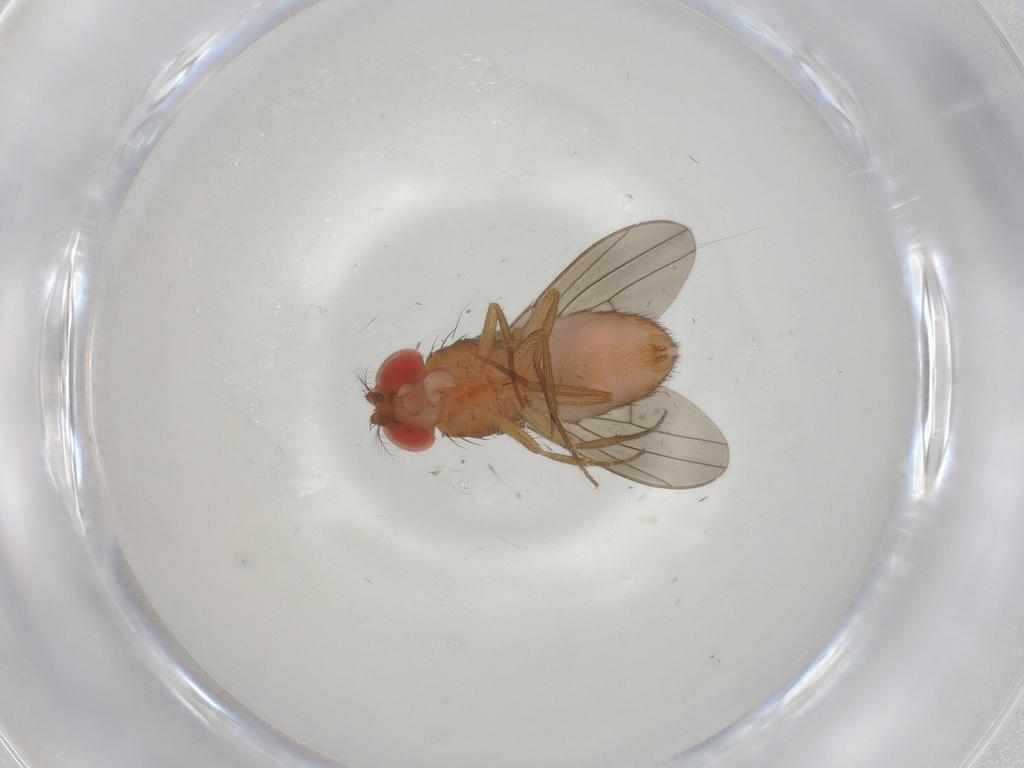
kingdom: Animalia
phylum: Arthropoda
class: Insecta
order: Diptera
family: Drosophilidae
